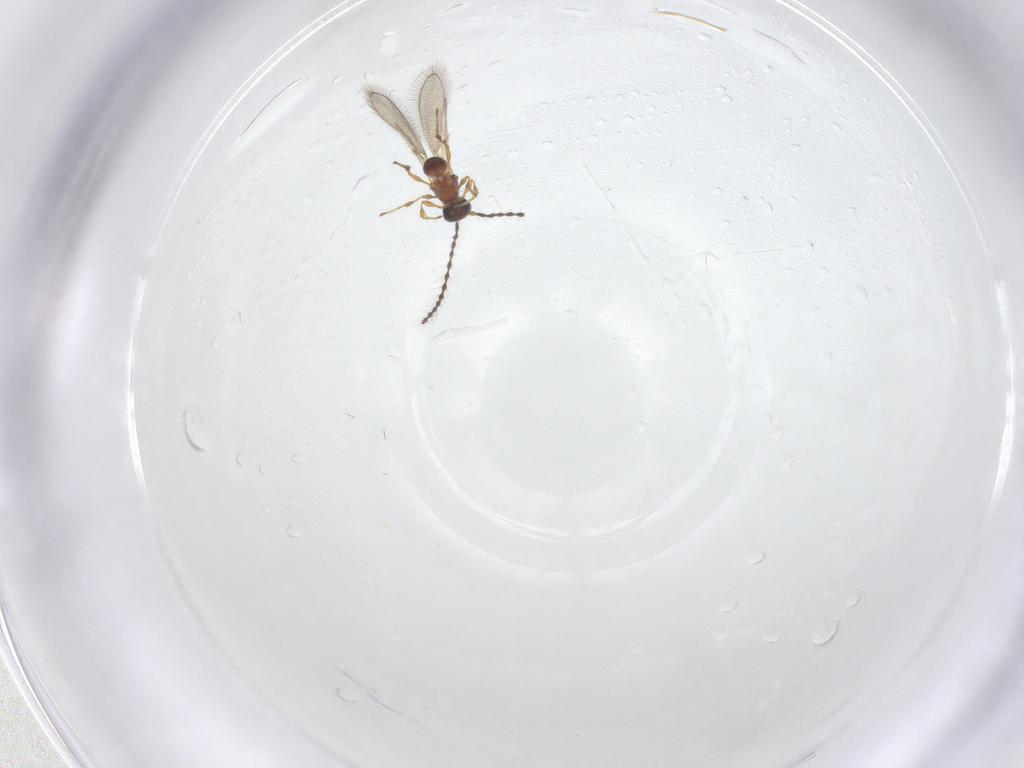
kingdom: Animalia
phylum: Arthropoda
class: Insecta
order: Hymenoptera
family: Diapriidae
